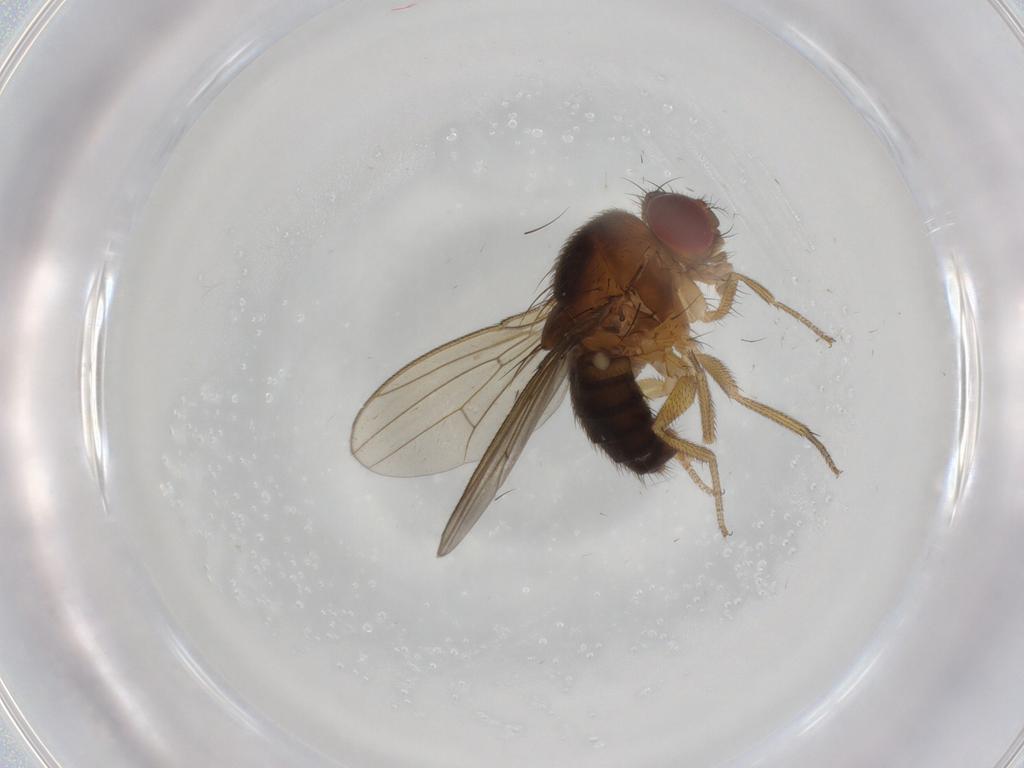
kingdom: Animalia
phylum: Arthropoda
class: Insecta
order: Diptera
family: Drosophilidae
